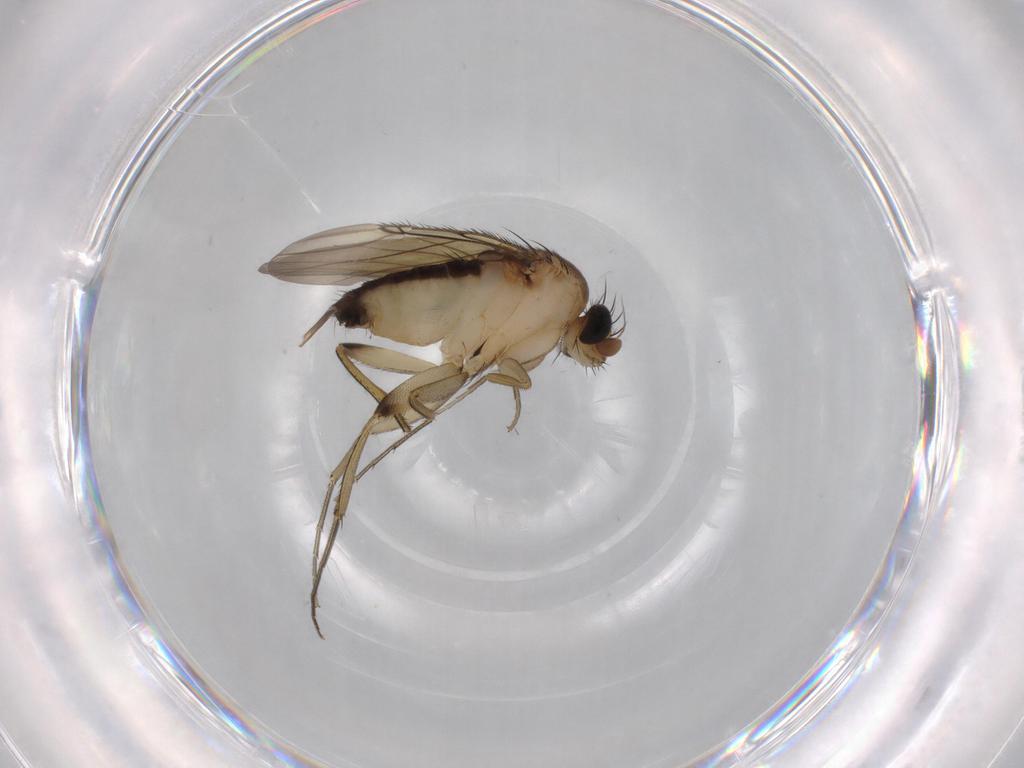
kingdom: Animalia
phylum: Arthropoda
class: Insecta
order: Diptera
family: Phoridae
